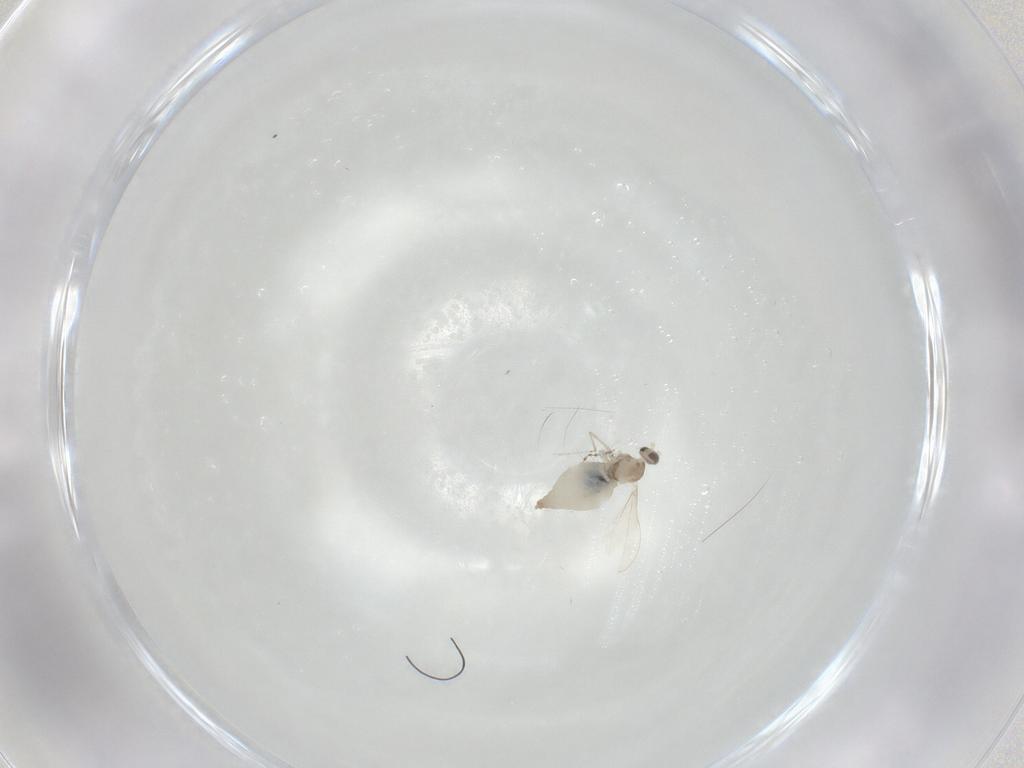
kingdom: Animalia
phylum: Arthropoda
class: Insecta
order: Diptera
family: Cecidomyiidae
